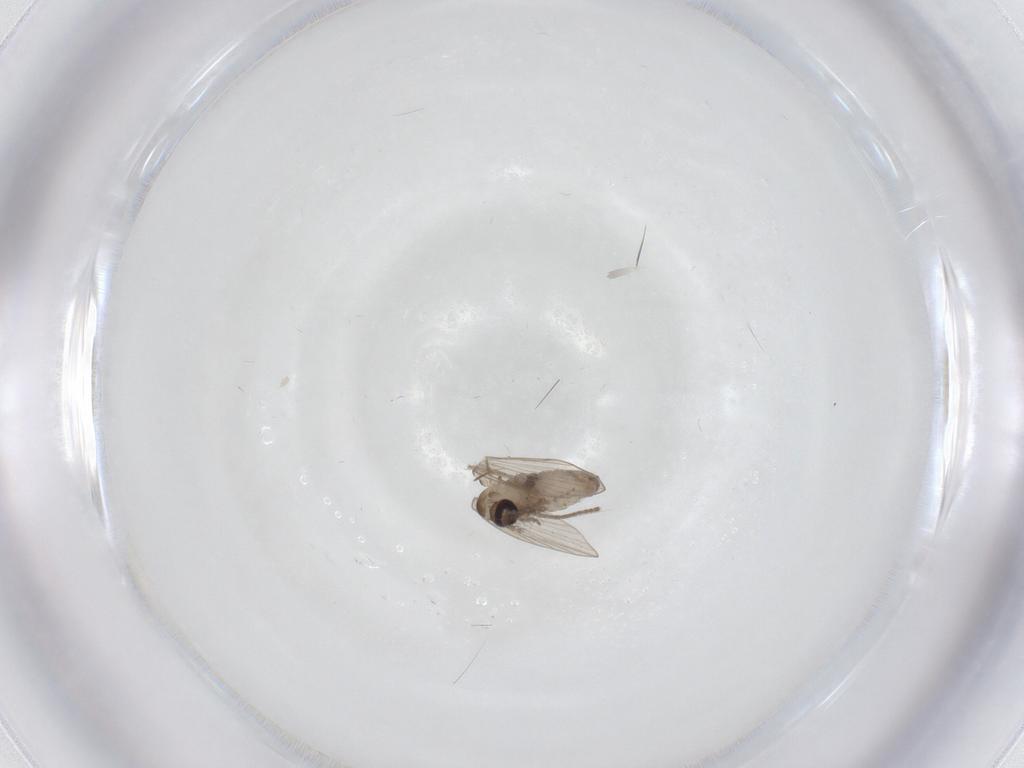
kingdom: Animalia
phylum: Arthropoda
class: Insecta
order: Diptera
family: Psychodidae
